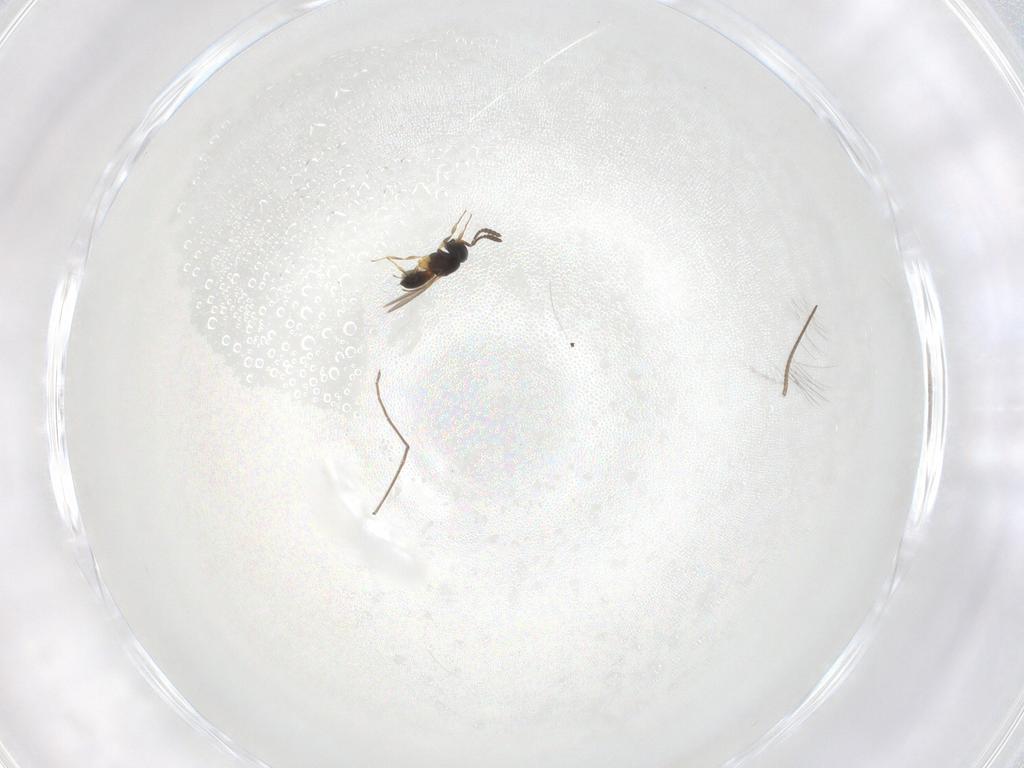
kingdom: Animalia
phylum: Arthropoda
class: Insecta
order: Hymenoptera
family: Scelionidae
